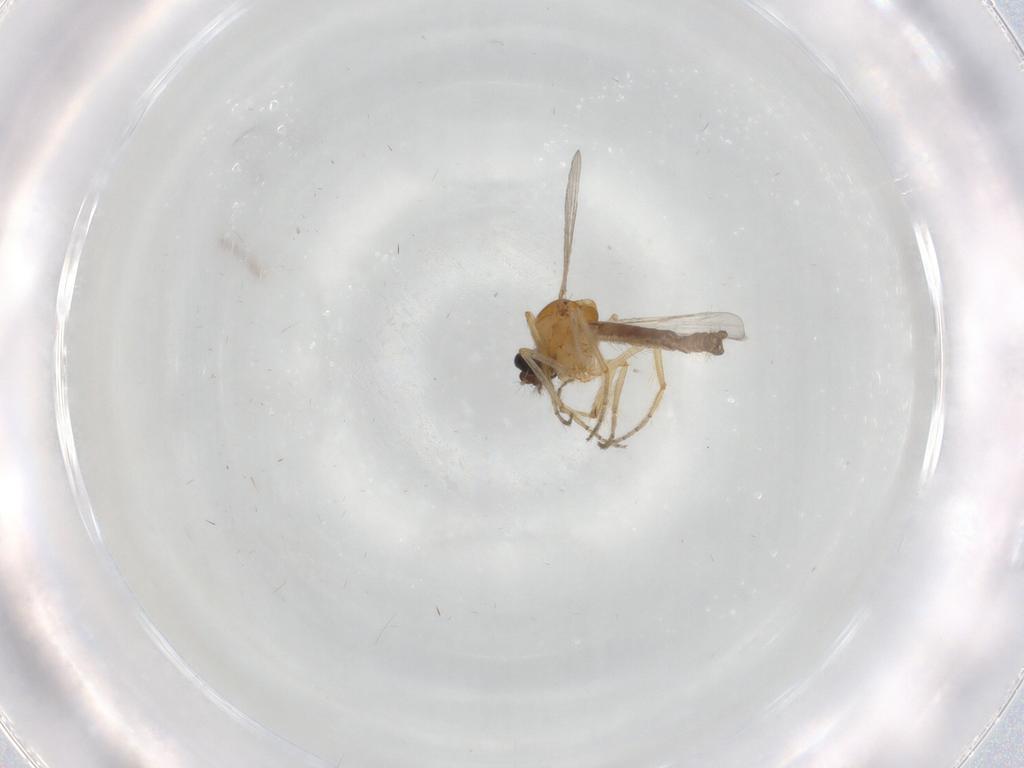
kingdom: Animalia
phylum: Arthropoda
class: Insecta
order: Diptera
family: Ceratopogonidae
